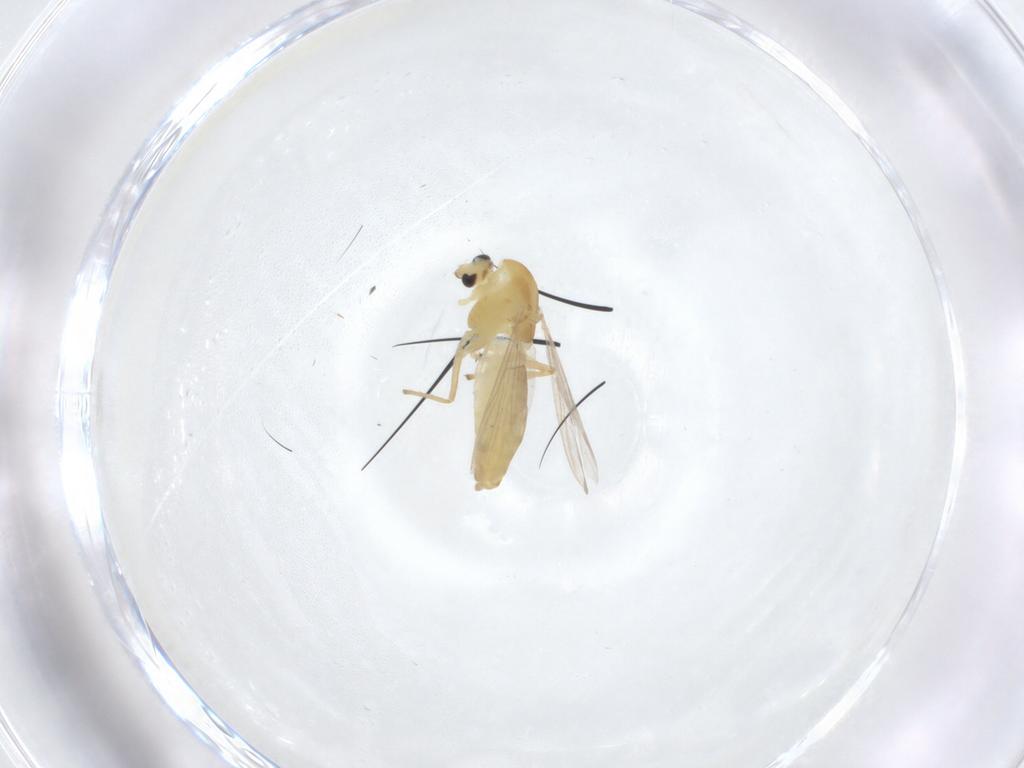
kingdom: Animalia
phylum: Arthropoda
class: Insecta
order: Diptera
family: Chironomidae
